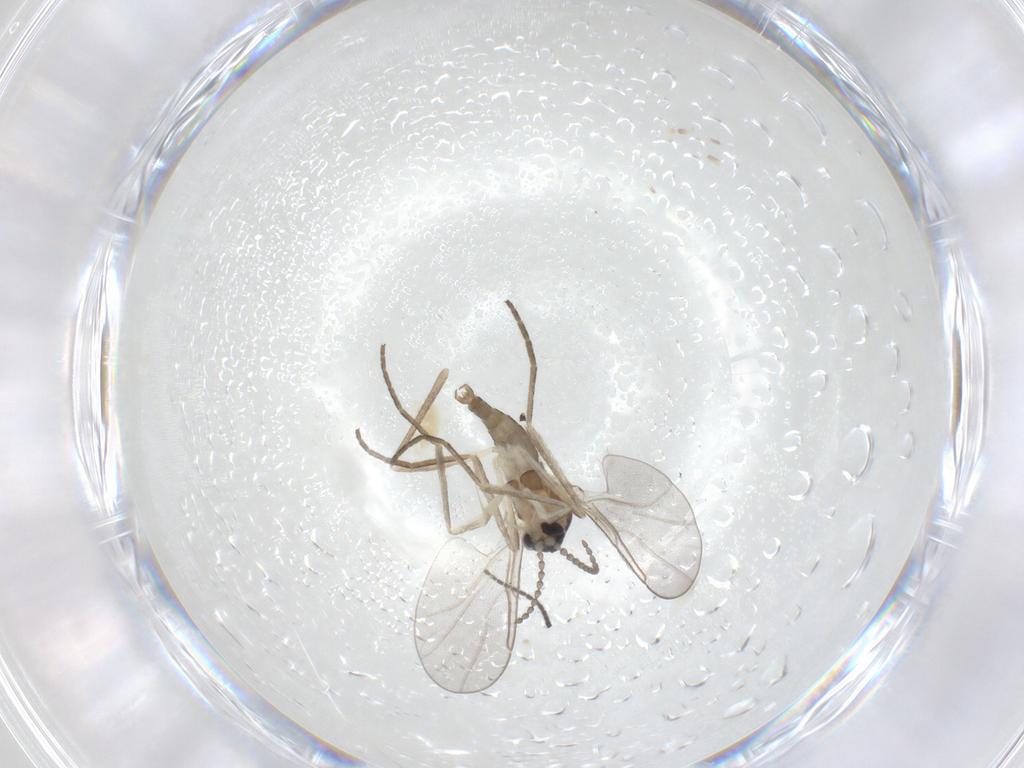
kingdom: Animalia
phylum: Arthropoda
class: Insecta
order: Diptera
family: Cecidomyiidae
